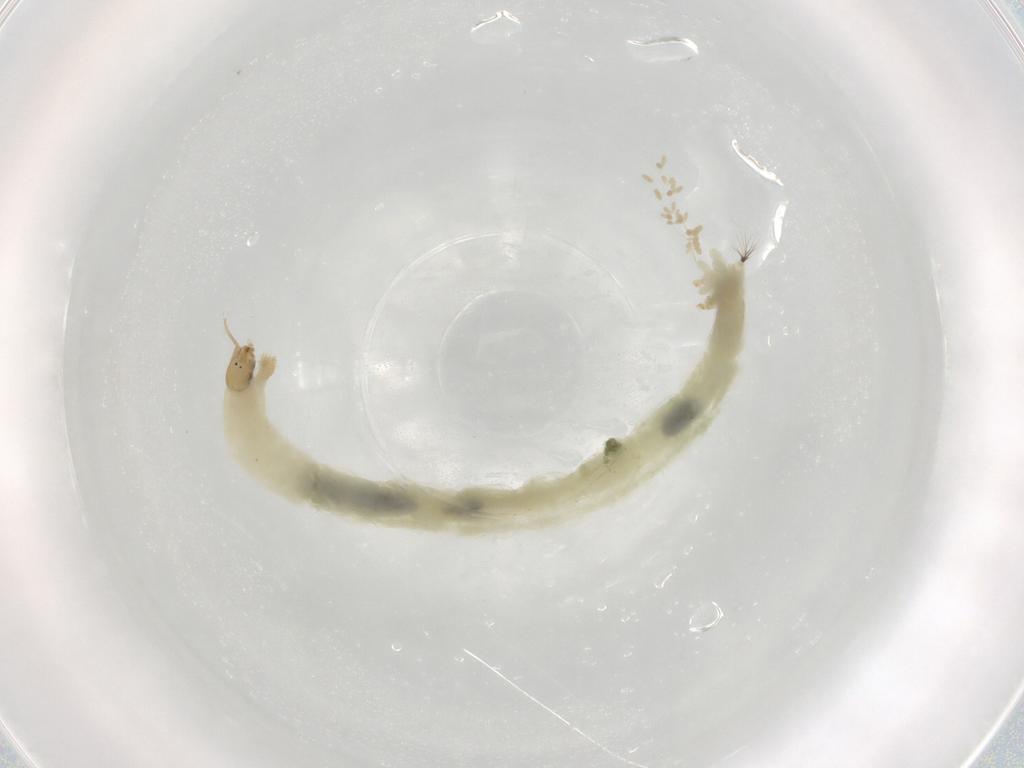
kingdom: Animalia
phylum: Arthropoda
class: Insecta
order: Diptera
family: Chironomidae
